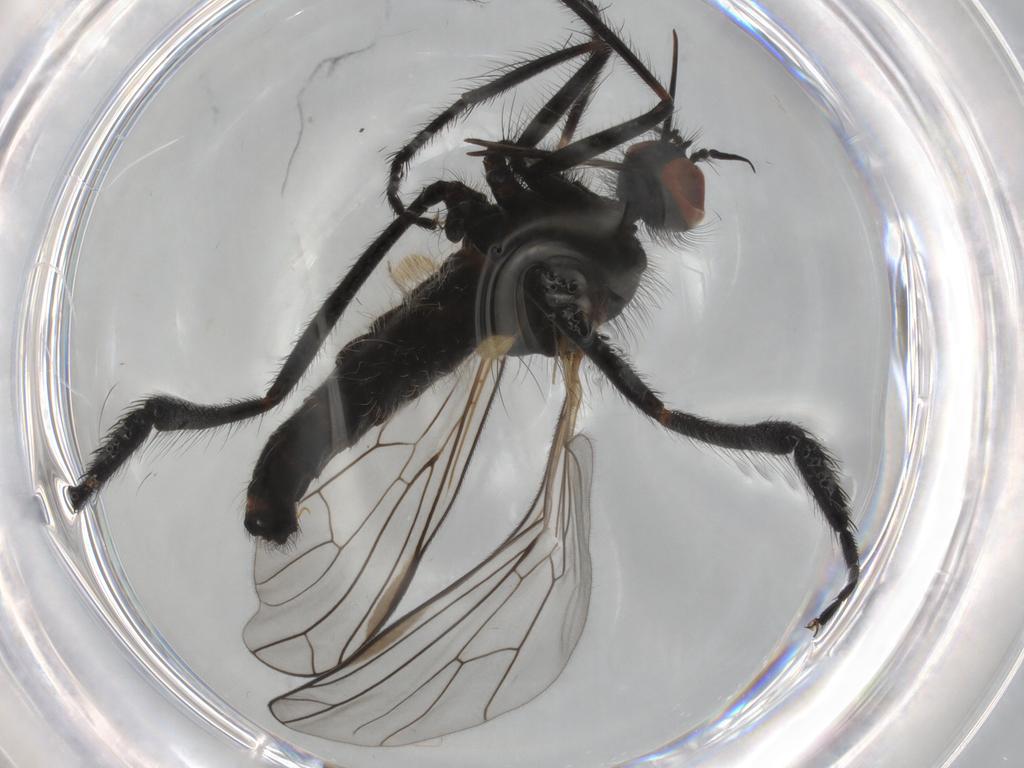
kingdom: Animalia
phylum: Arthropoda
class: Insecta
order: Diptera
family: Empididae
